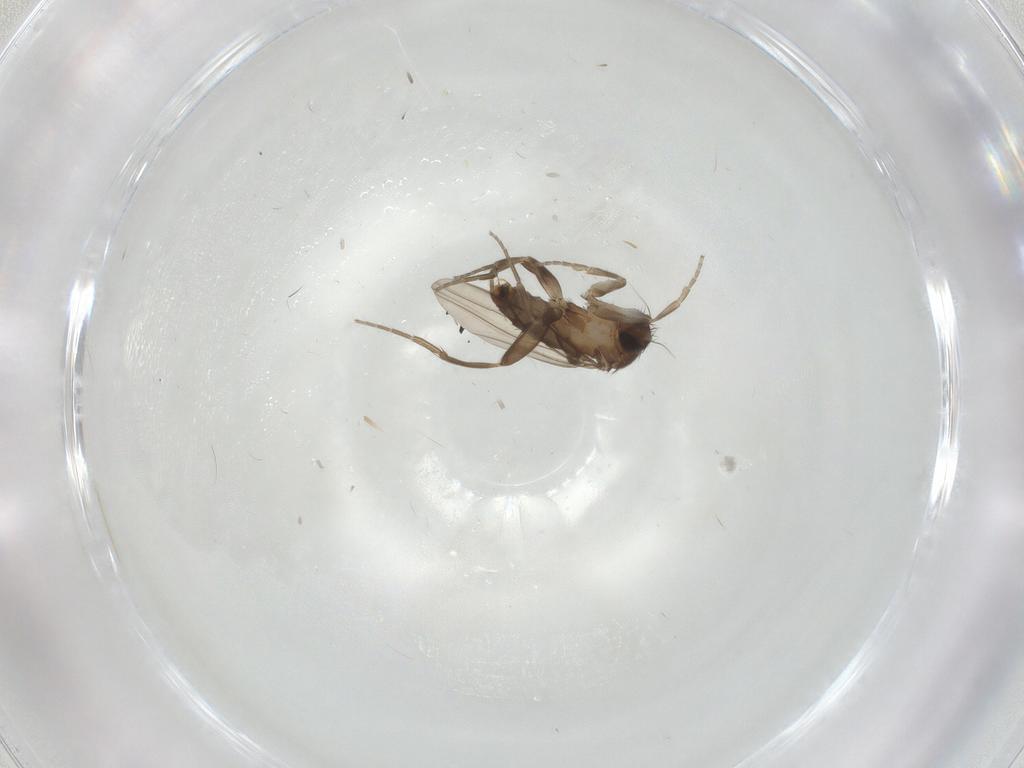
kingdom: Animalia
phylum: Arthropoda
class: Insecta
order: Diptera
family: Phoridae
